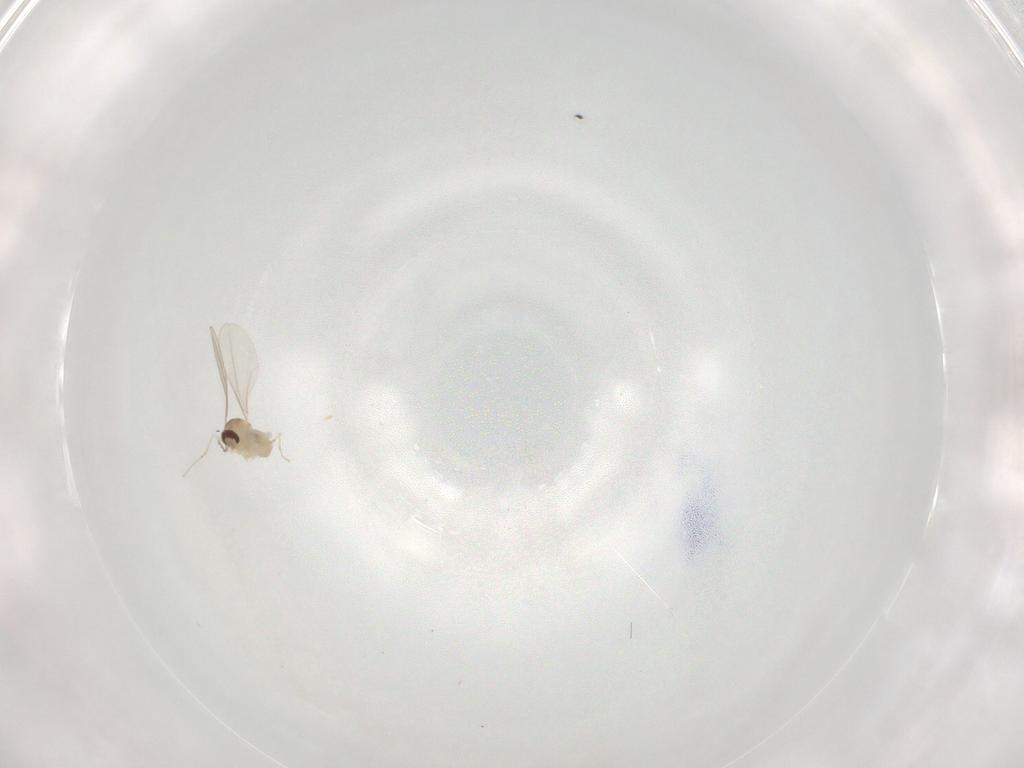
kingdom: Animalia
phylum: Arthropoda
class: Insecta
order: Diptera
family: Cecidomyiidae
